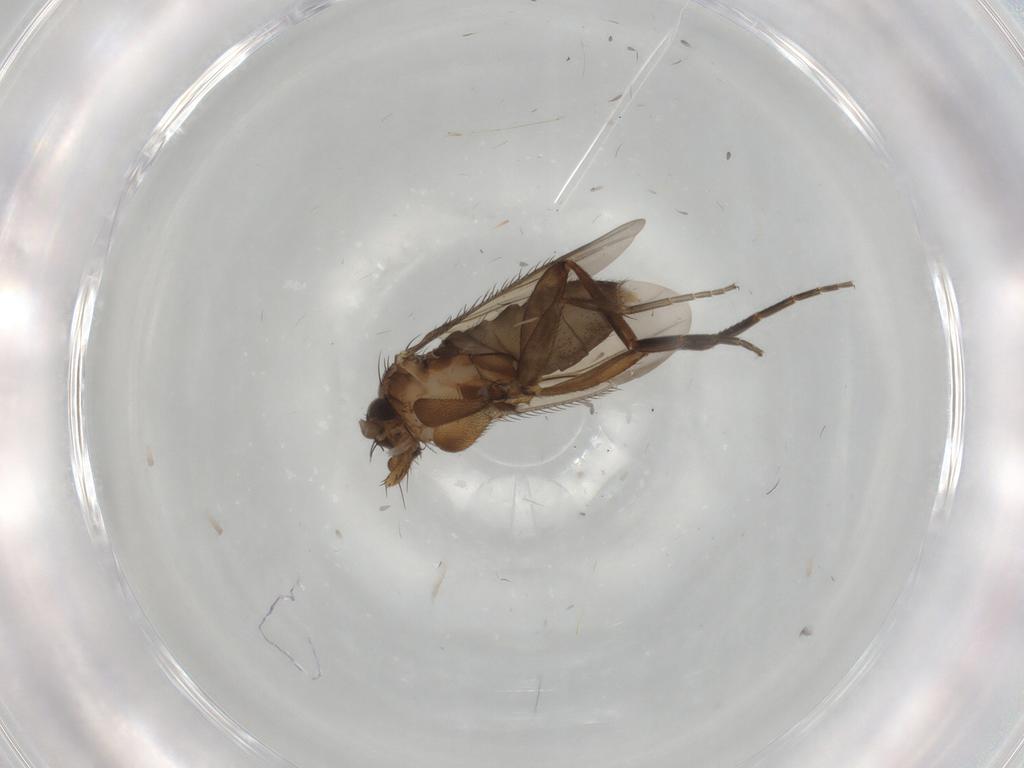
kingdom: Animalia
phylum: Arthropoda
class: Insecta
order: Diptera
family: Mycetophilidae
